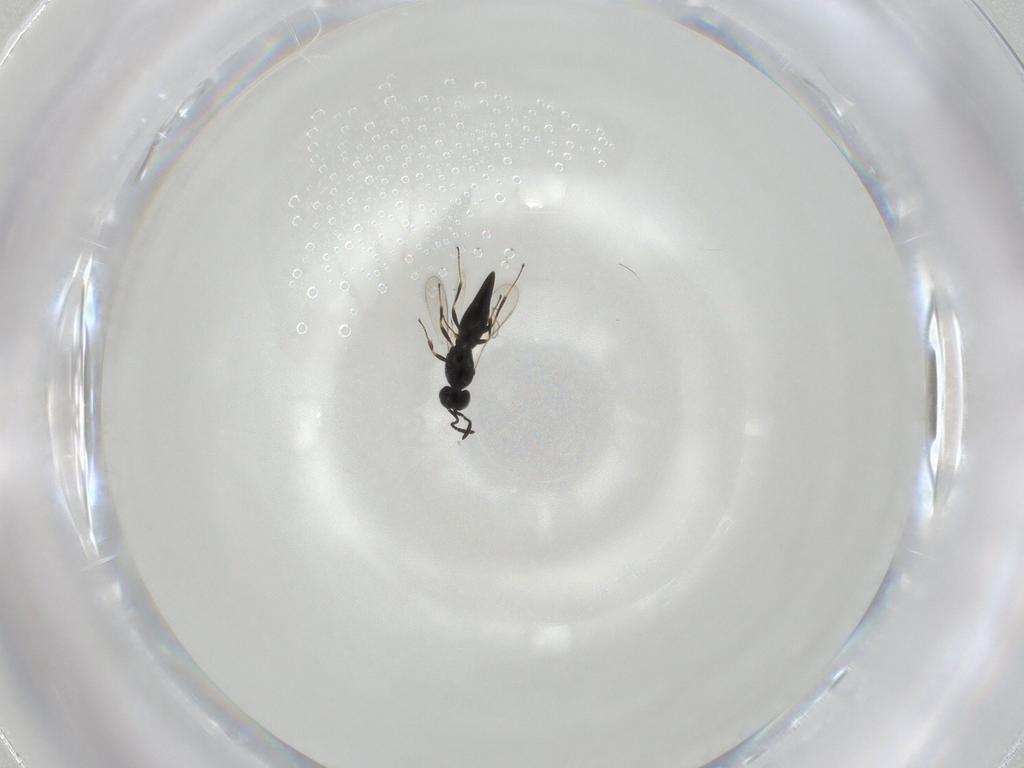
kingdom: Animalia
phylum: Arthropoda
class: Insecta
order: Hymenoptera
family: Scelionidae
